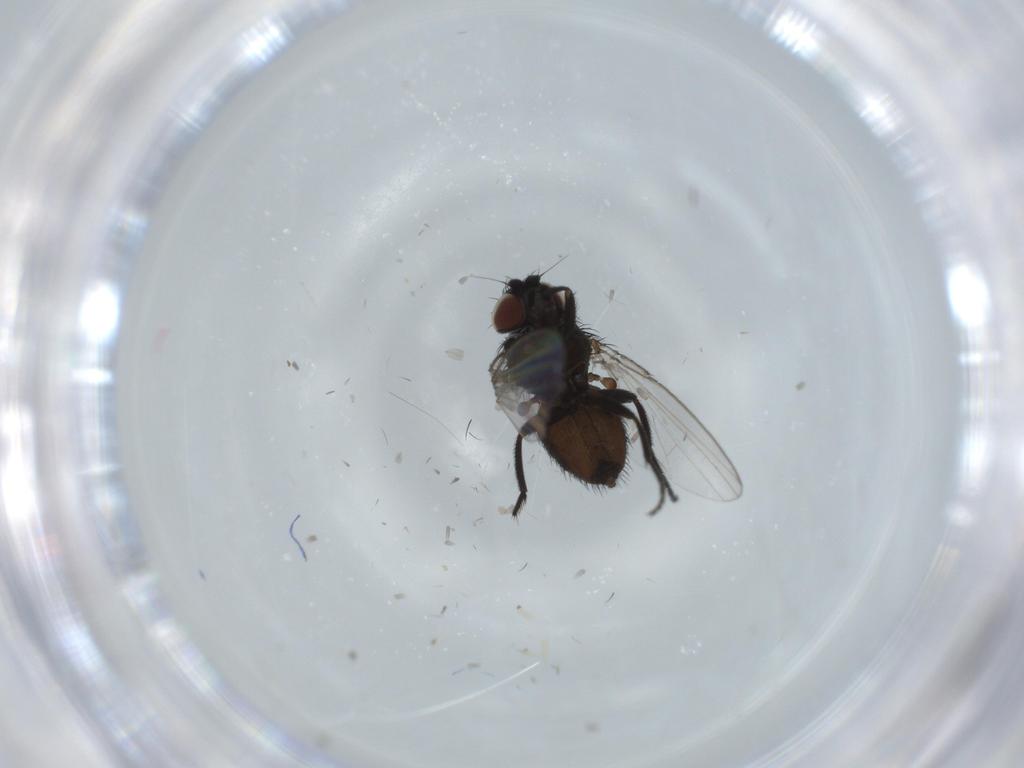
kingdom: Animalia
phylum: Arthropoda
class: Insecta
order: Diptera
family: Milichiidae
